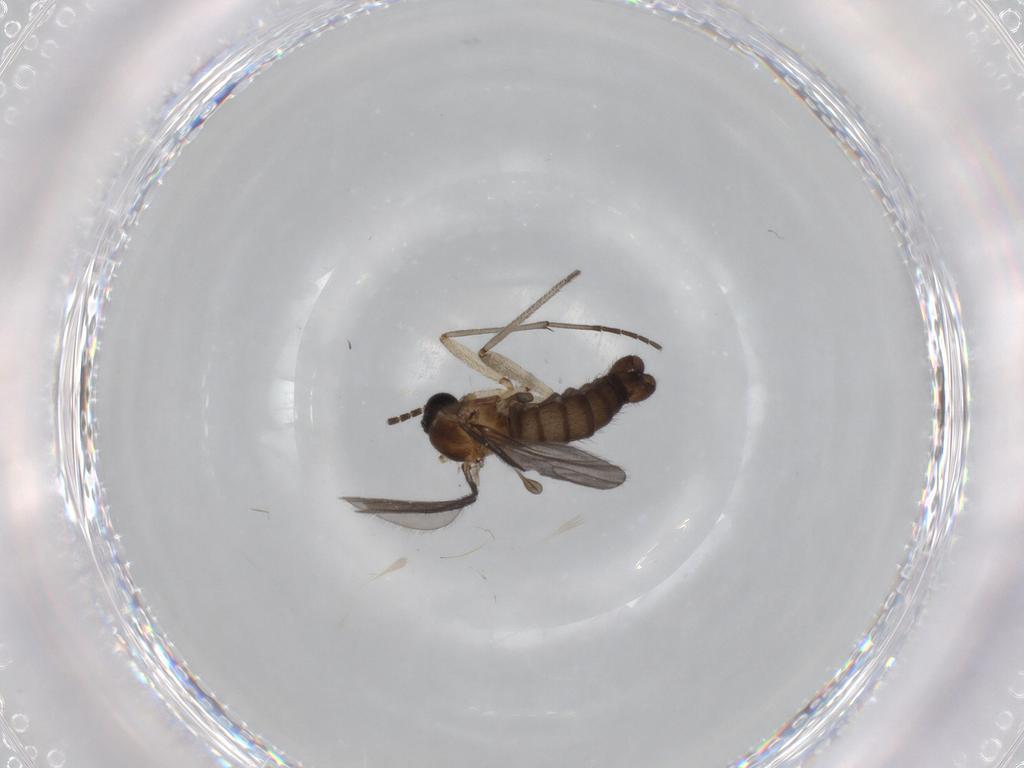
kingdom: Animalia
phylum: Arthropoda
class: Insecta
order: Diptera
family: Sciaridae
